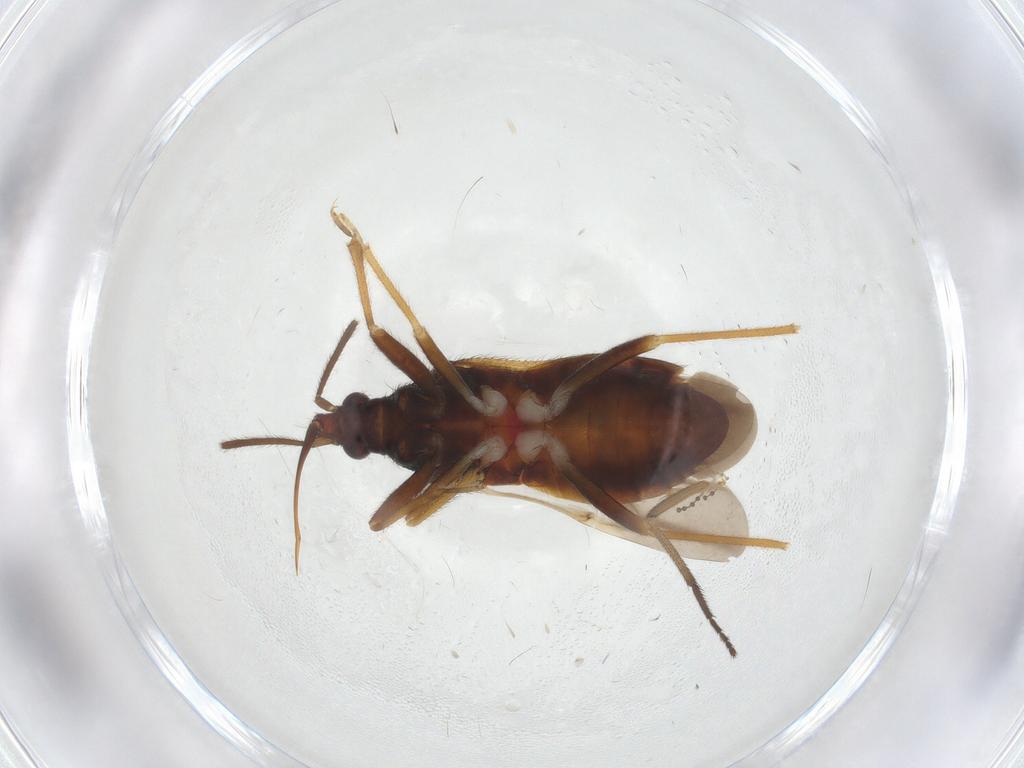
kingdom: Animalia
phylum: Arthropoda
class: Insecta
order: Hemiptera
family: Anthocoridae
